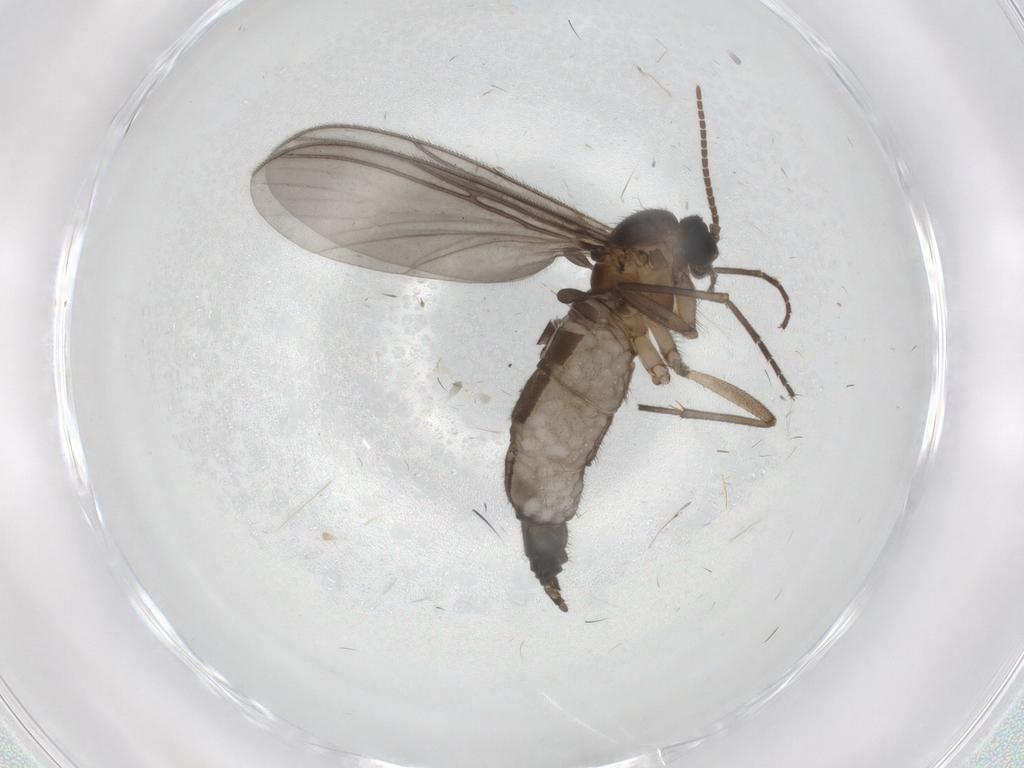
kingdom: Animalia
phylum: Arthropoda
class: Insecta
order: Diptera
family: Sciaridae
